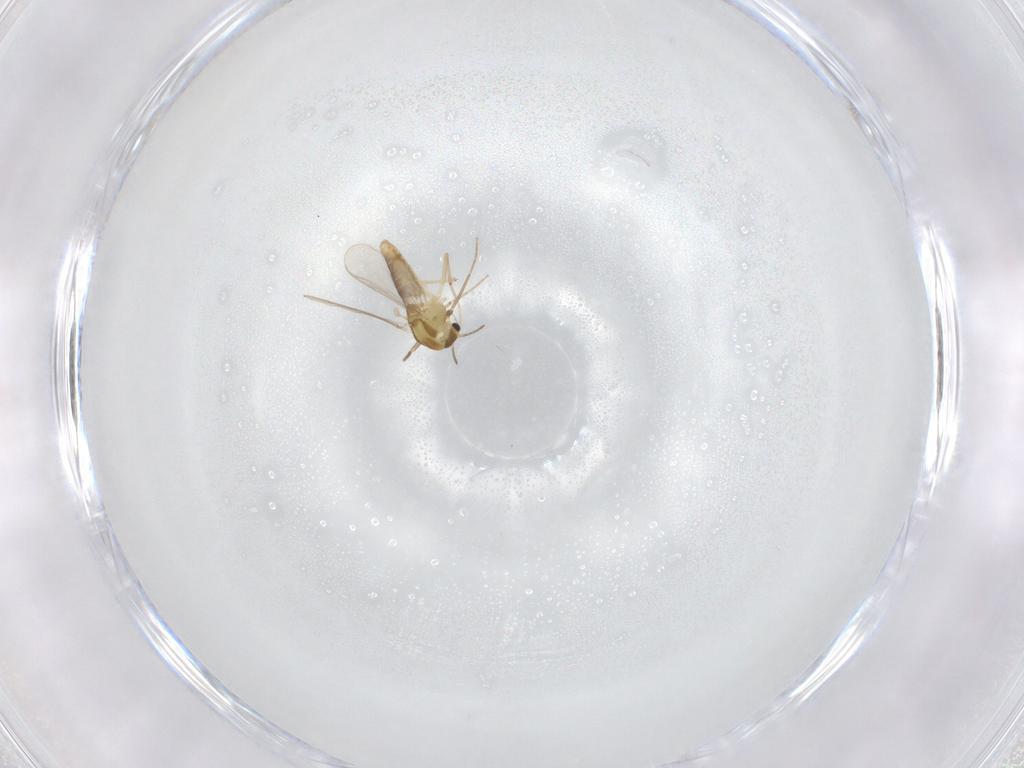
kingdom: Animalia
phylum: Arthropoda
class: Insecta
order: Diptera
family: Chironomidae
